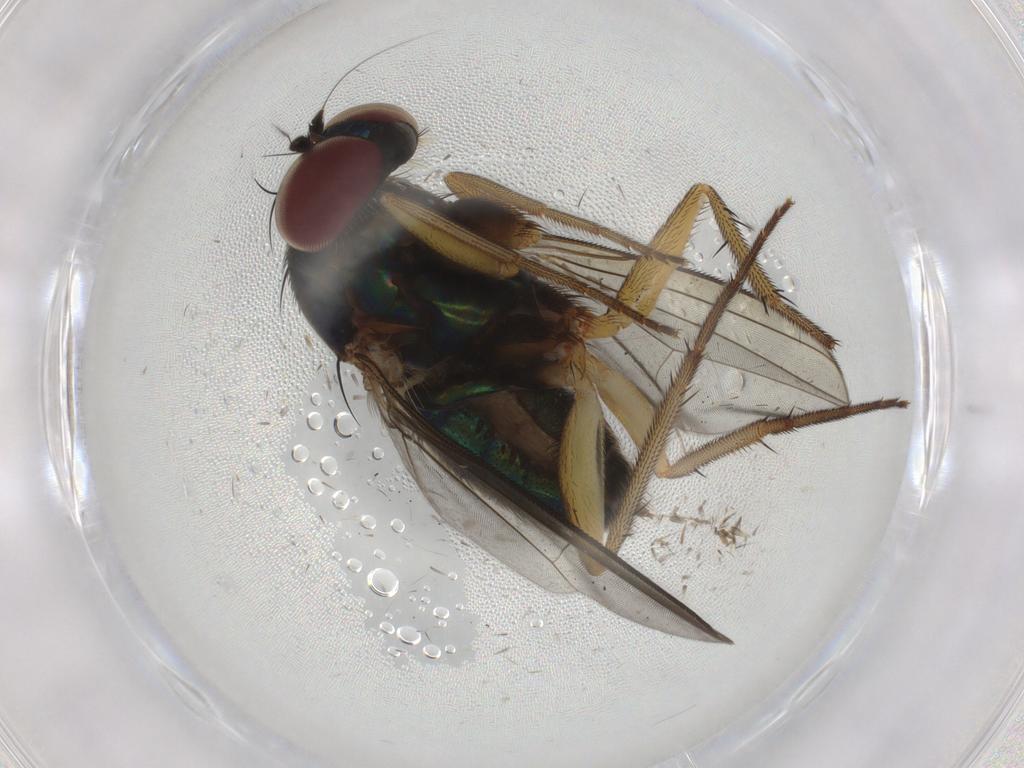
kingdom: Animalia
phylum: Arthropoda
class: Insecta
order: Diptera
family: Dolichopodidae
